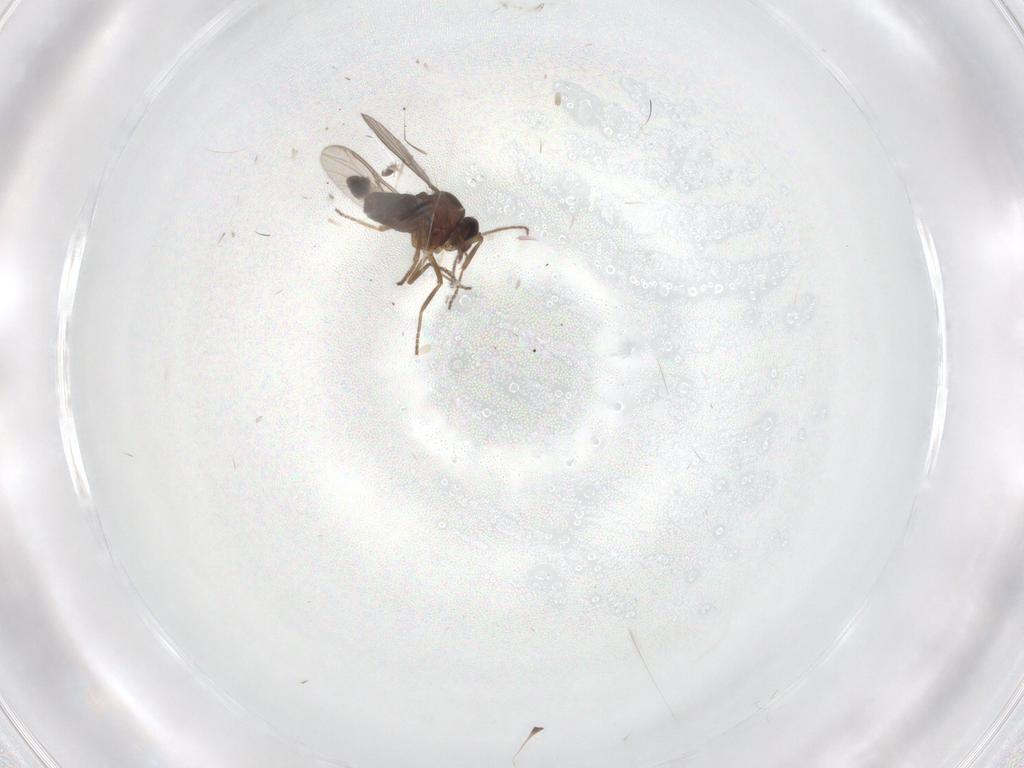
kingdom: Animalia
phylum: Arthropoda
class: Insecta
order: Diptera
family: Ceratopogonidae
